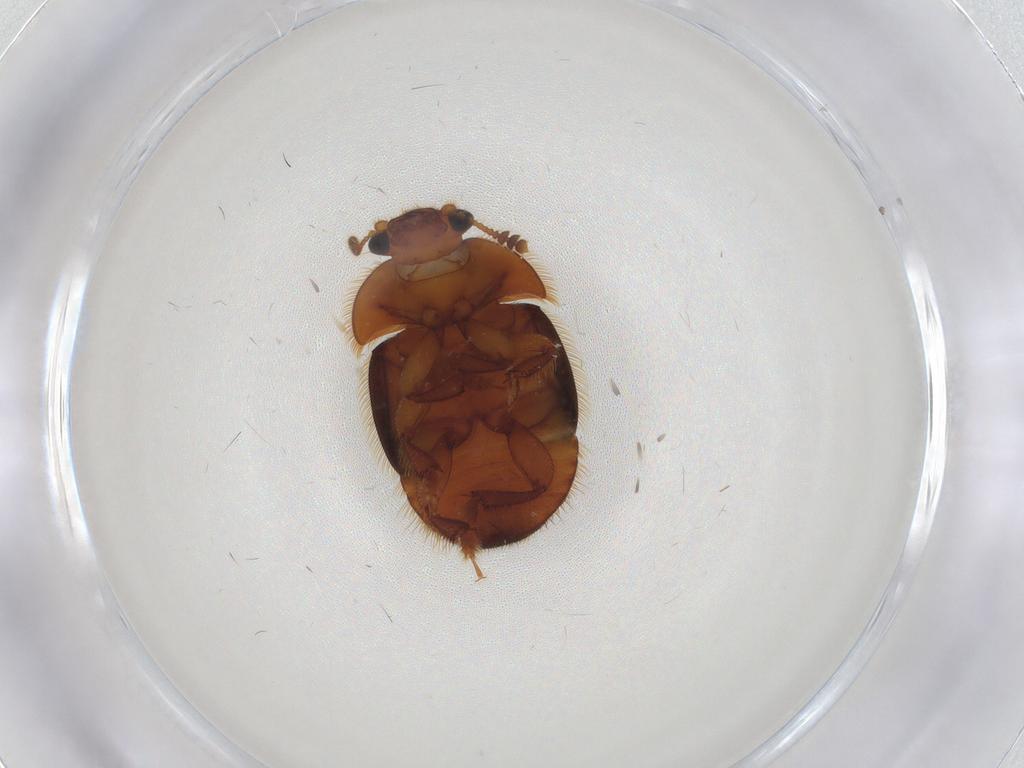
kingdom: Animalia
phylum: Arthropoda
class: Insecta
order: Coleoptera
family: Nitidulidae
